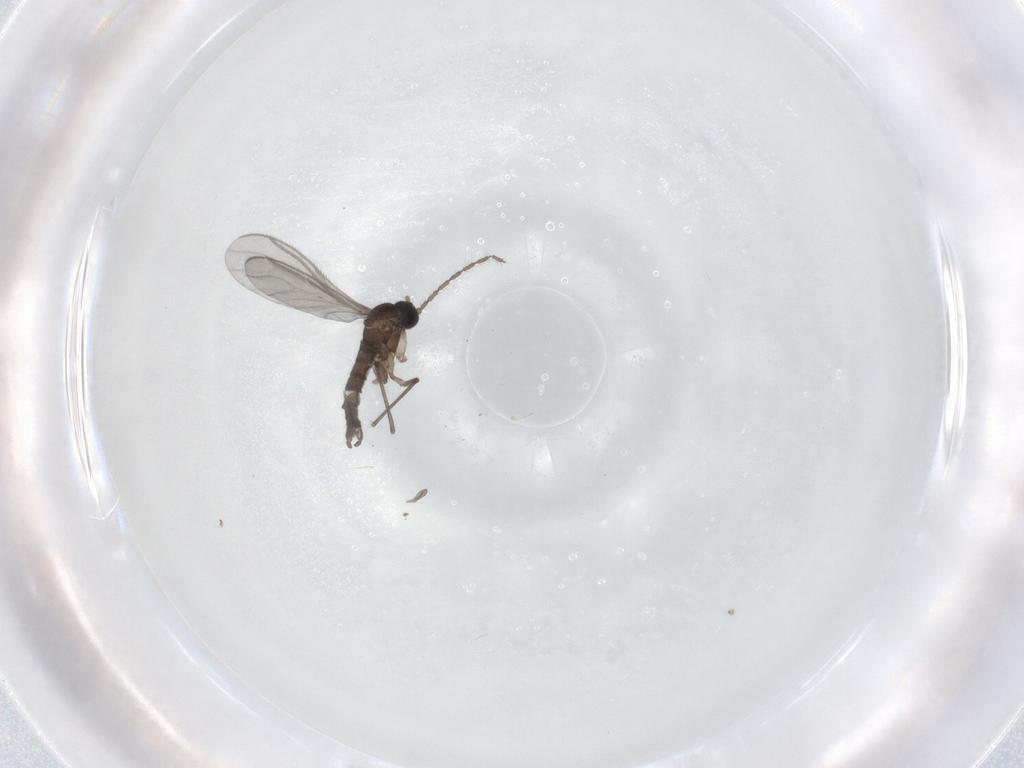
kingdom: Animalia
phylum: Arthropoda
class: Insecta
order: Diptera
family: Sciaridae
